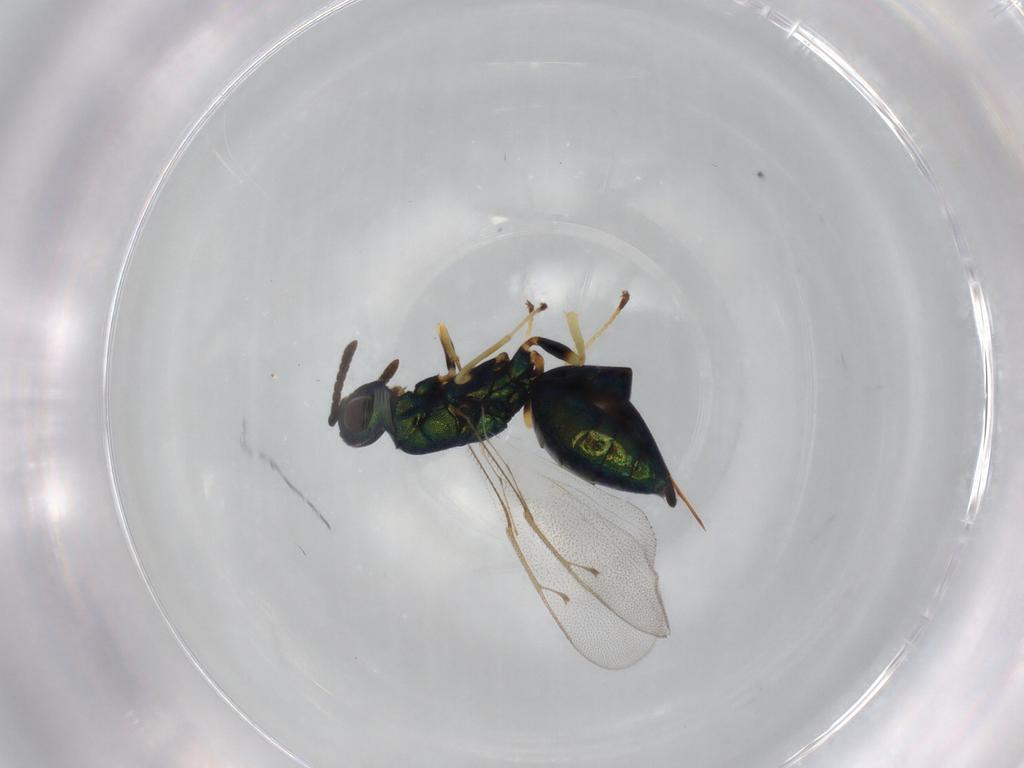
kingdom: Animalia
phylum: Arthropoda
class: Insecta
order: Hymenoptera
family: Pteromalidae
